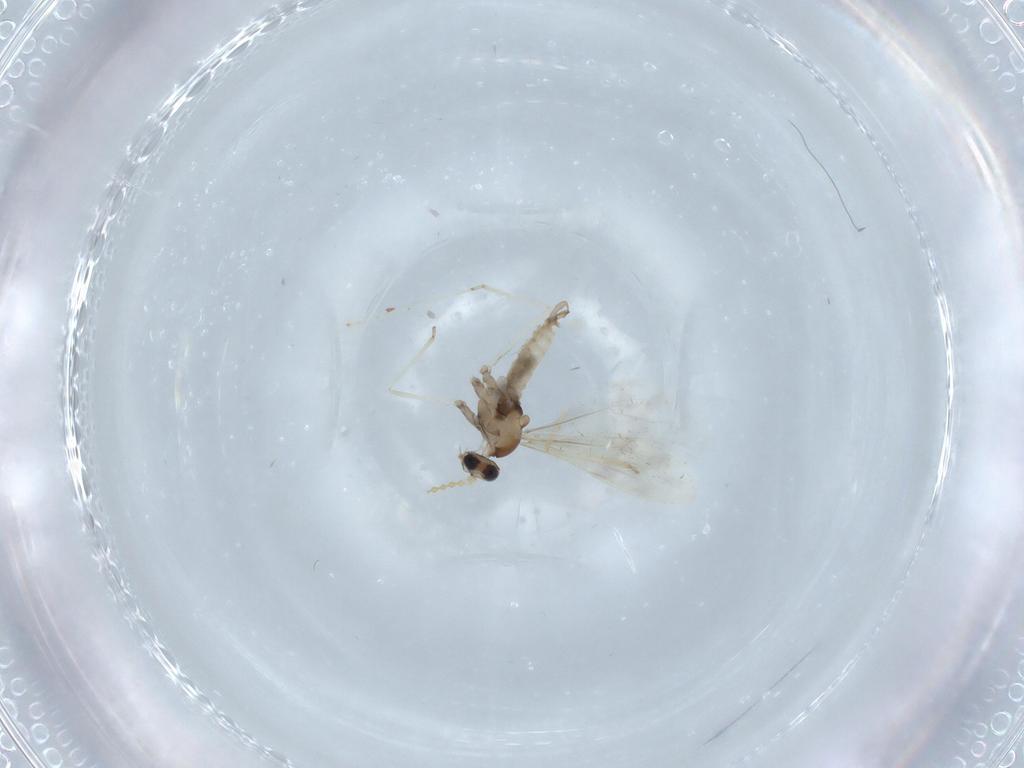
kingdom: Animalia
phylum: Arthropoda
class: Insecta
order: Diptera
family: Cecidomyiidae
